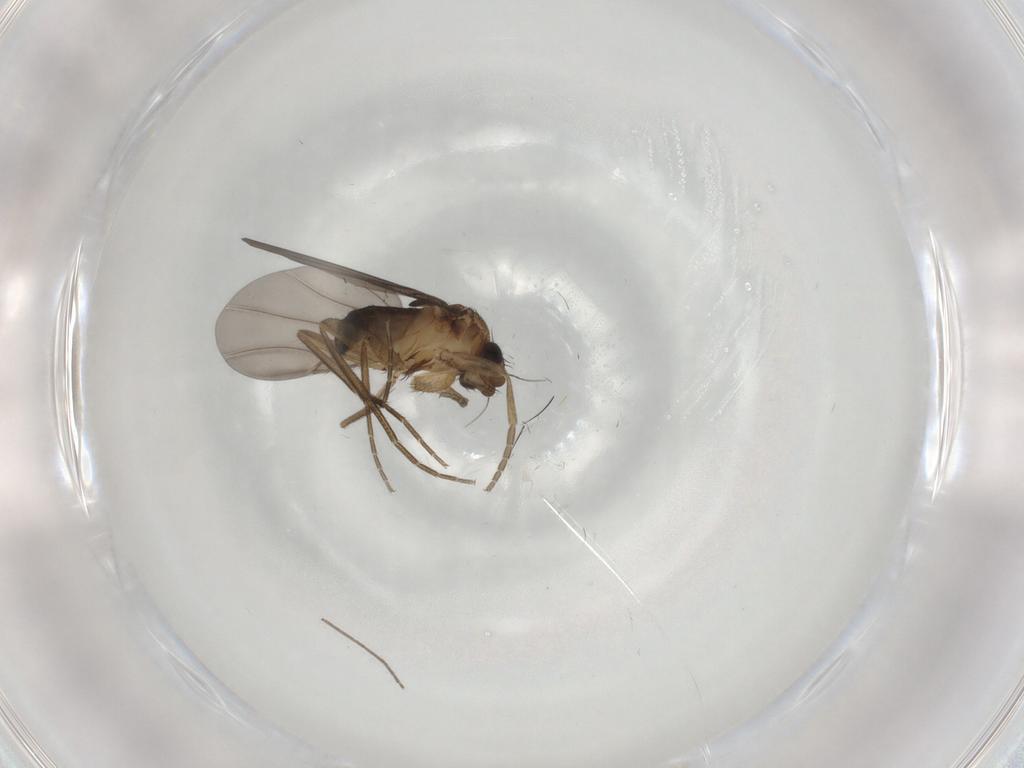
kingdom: Animalia
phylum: Arthropoda
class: Insecta
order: Diptera
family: Phoridae
